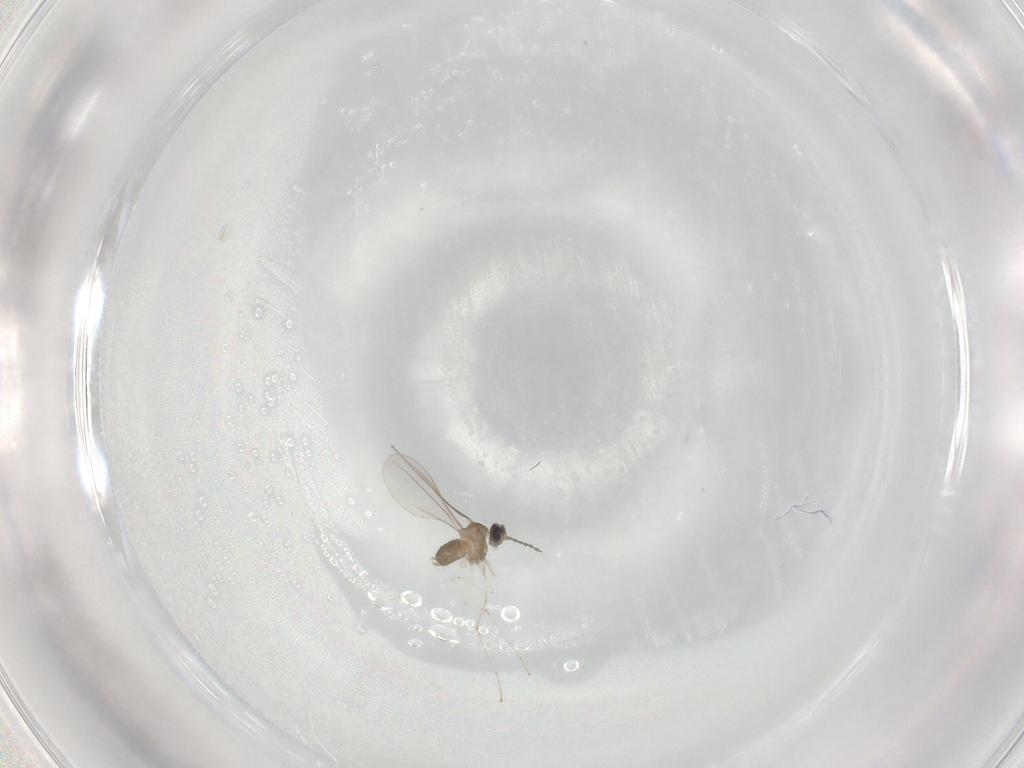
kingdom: Animalia
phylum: Arthropoda
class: Insecta
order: Diptera
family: Cecidomyiidae
